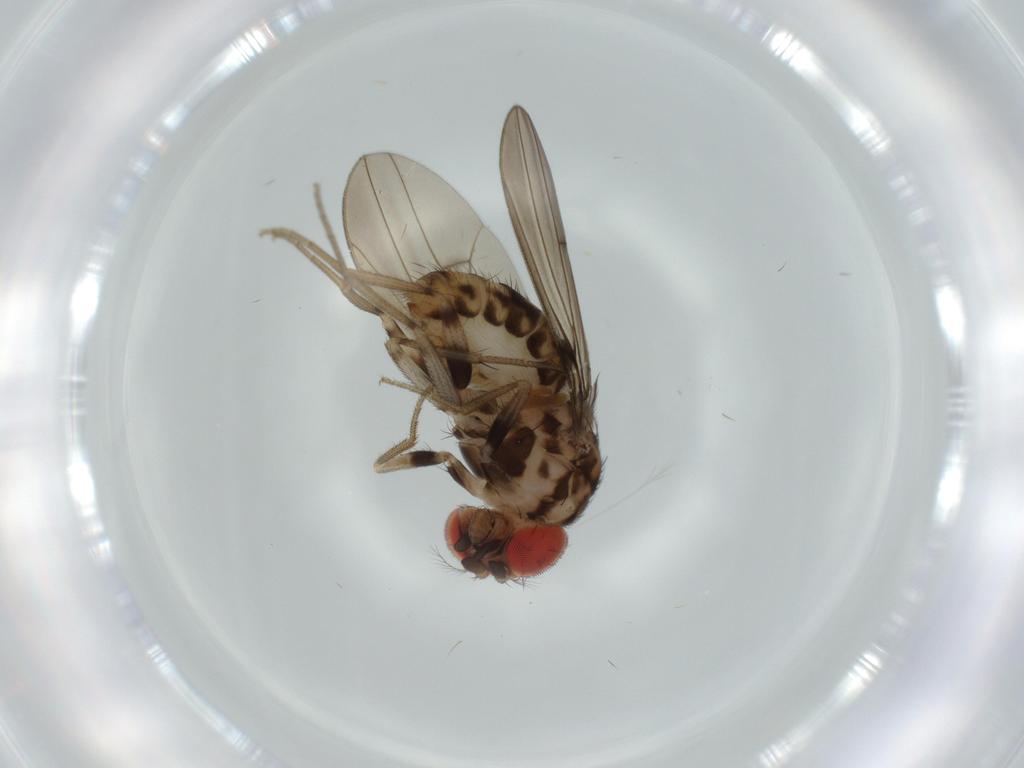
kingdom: Animalia
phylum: Arthropoda
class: Insecta
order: Diptera
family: Drosophilidae
